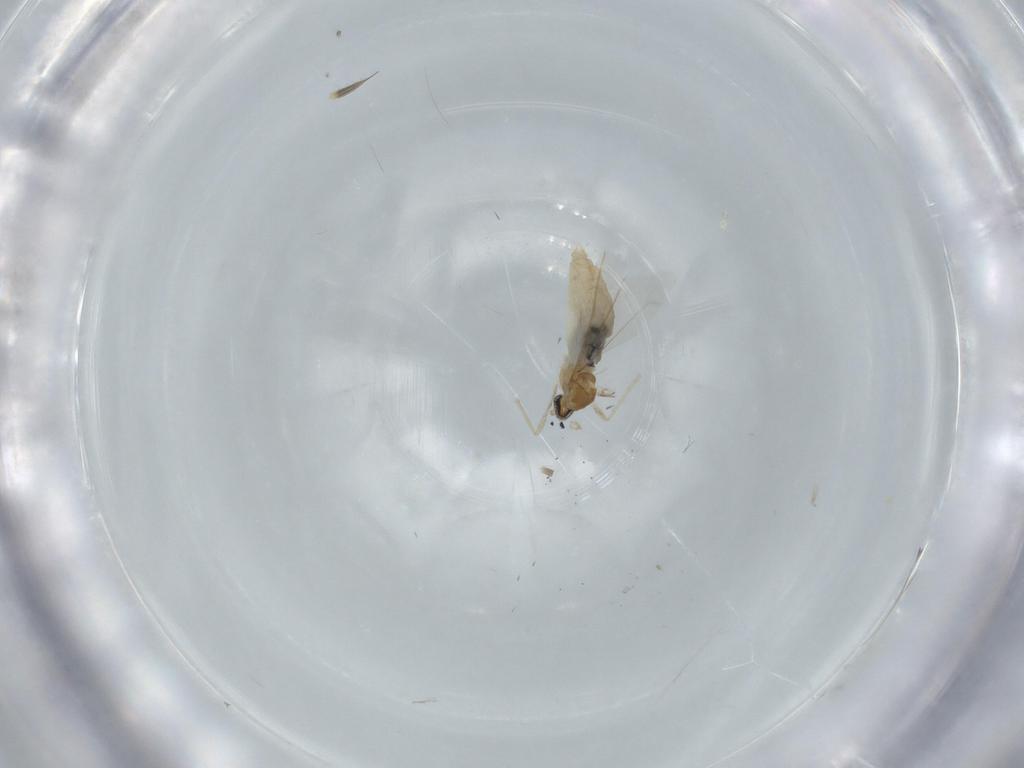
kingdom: Animalia
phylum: Arthropoda
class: Insecta
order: Diptera
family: Cecidomyiidae
